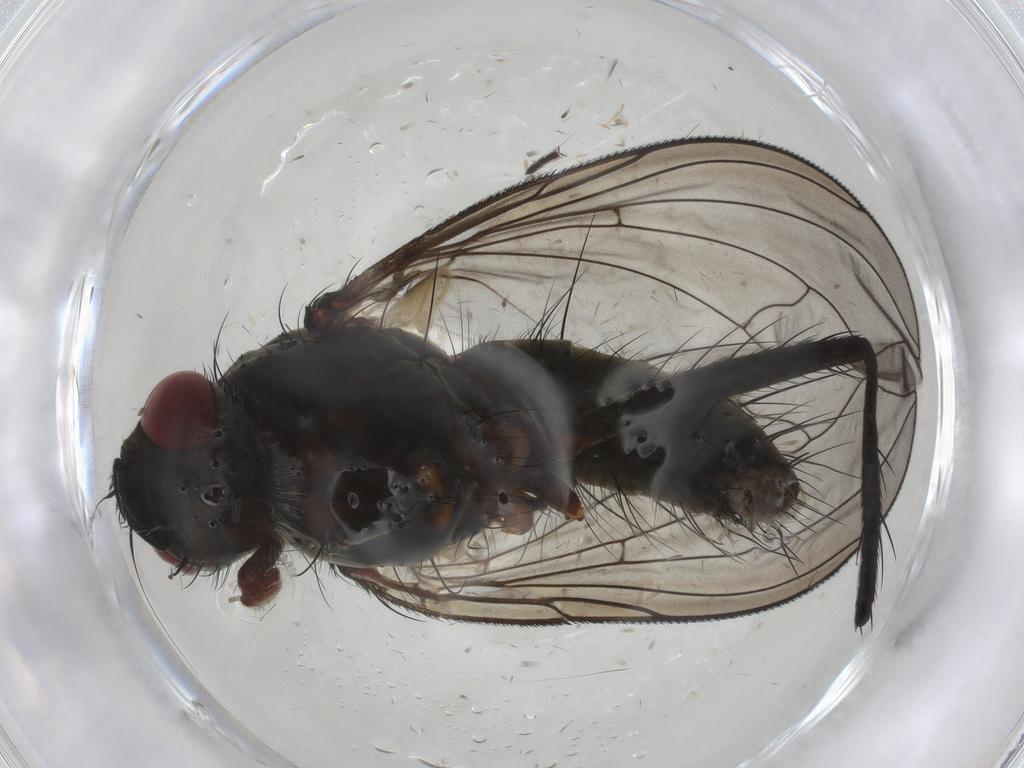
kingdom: Animalia
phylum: Arthropoda
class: Insecta
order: Diptera
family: Tachinidae
